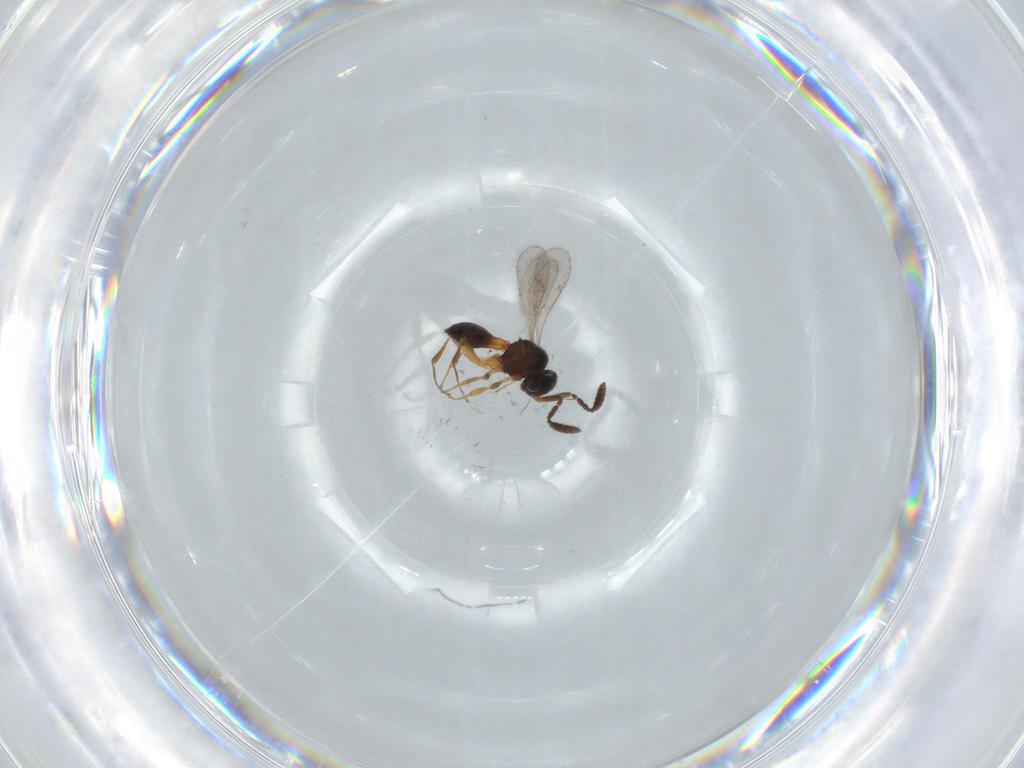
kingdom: Animalia
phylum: Arthropoda
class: Insecta
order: Hymenoptera
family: Scelionidae
